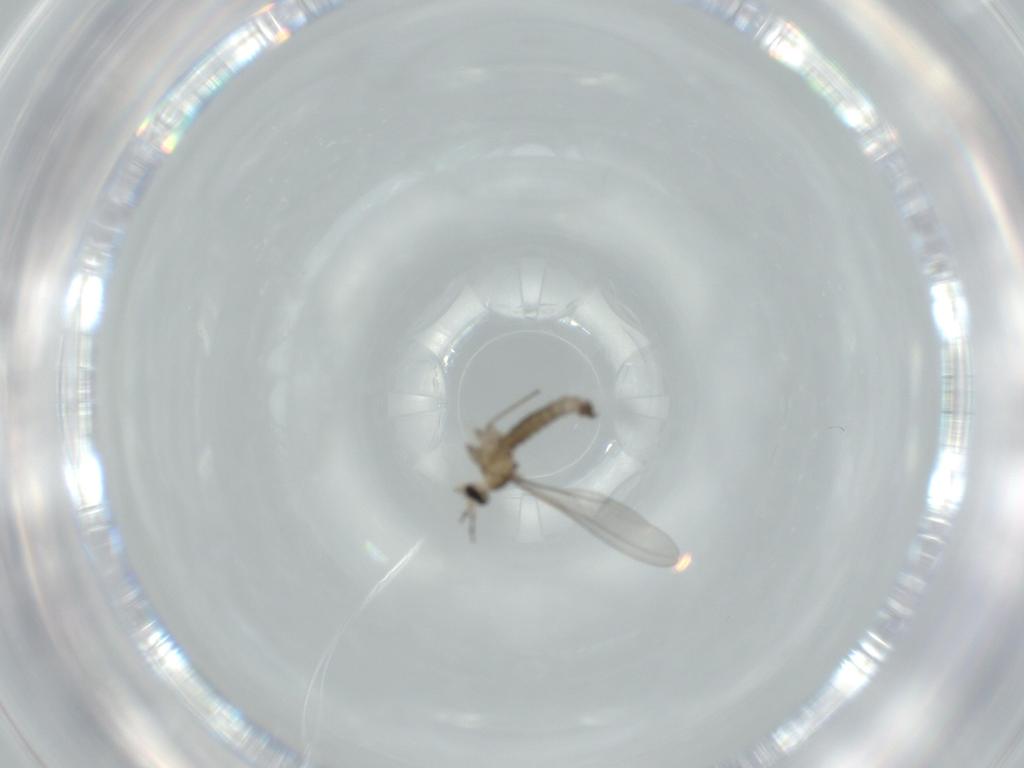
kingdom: Animalia
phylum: Arthropoda
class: Insecta
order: Diptera
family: Cecidomyiidae
